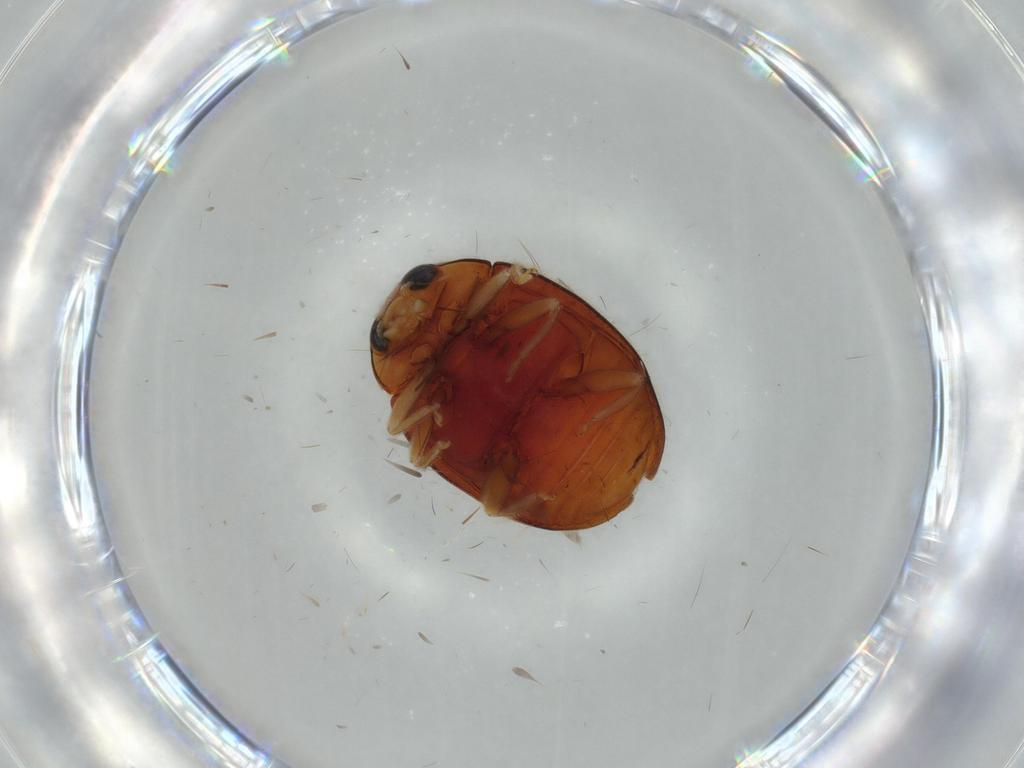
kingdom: Animalia
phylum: Arthropoda
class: Insecta
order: Coleoptera
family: Coccinellidae
